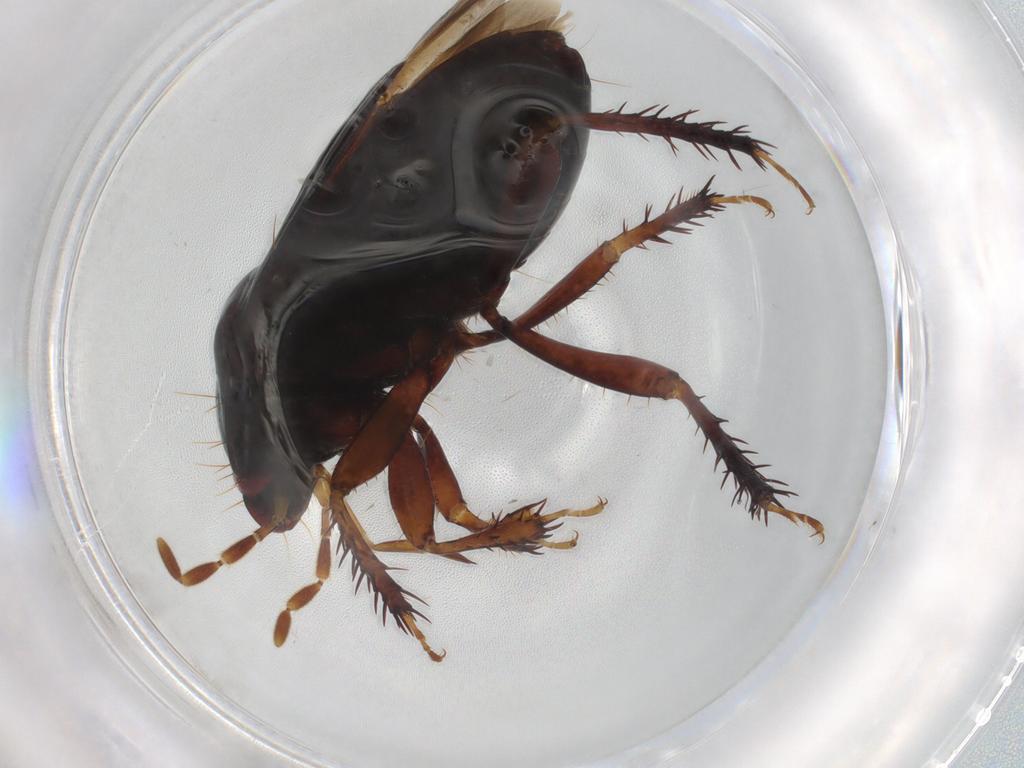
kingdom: Animalia
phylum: Arthropoda
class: Insecta
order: Hemiptera
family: Cydnidae
